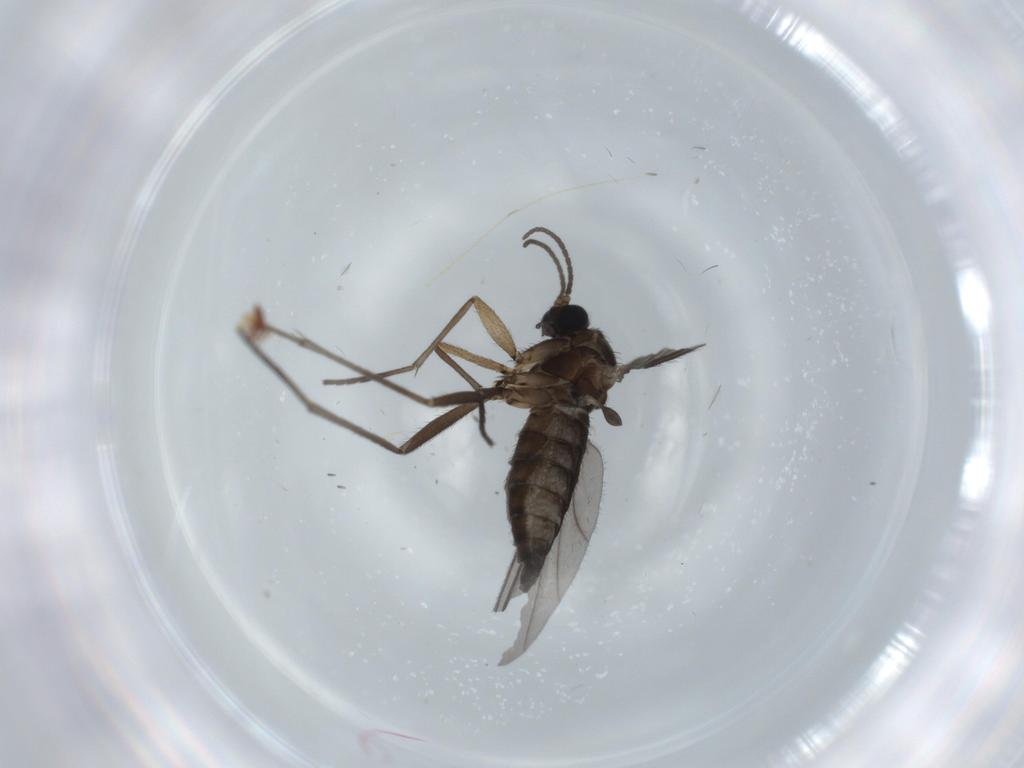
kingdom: Animalia
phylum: Arthropoda
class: Insecta
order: Diptera
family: Sciaridae
